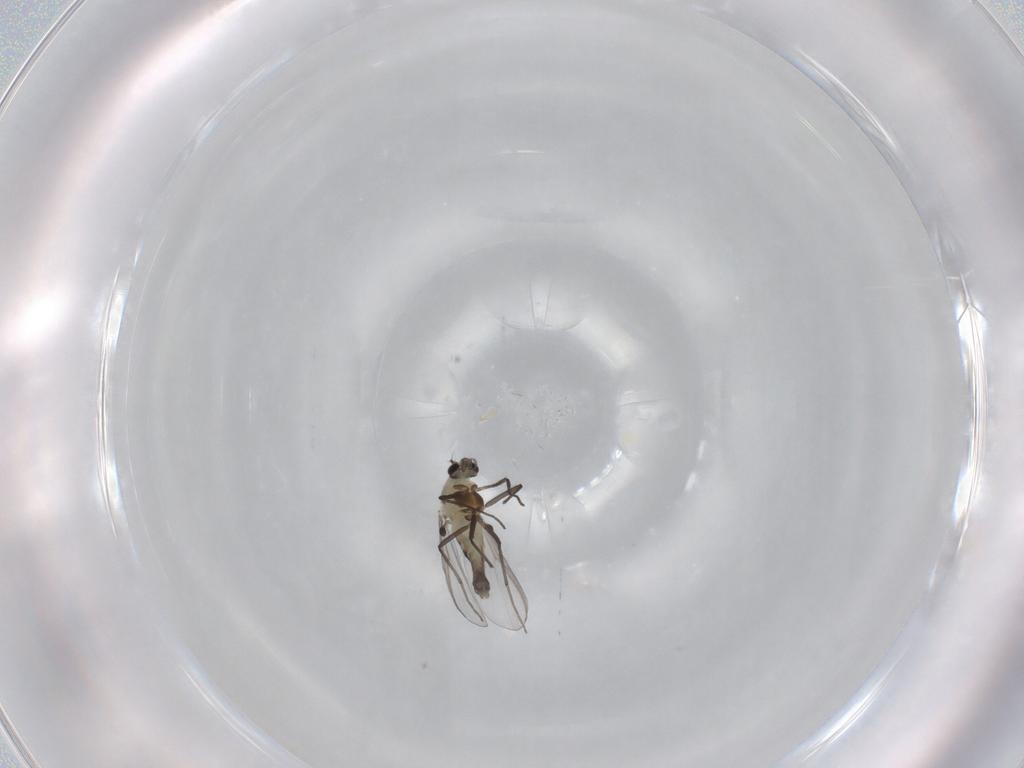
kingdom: Animalia
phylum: Arthropoda
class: Insecta
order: Diptera
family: Chironomidae
